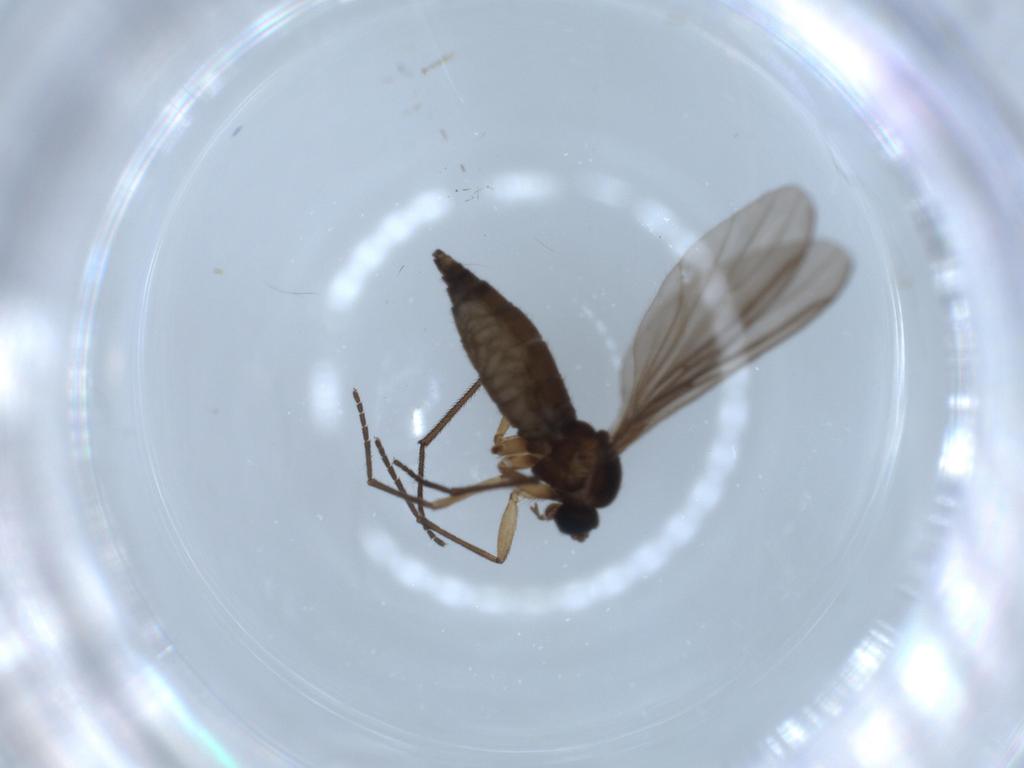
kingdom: Animalia
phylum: Arthropoda
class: Insecta
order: Diptera
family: Sciaridae
